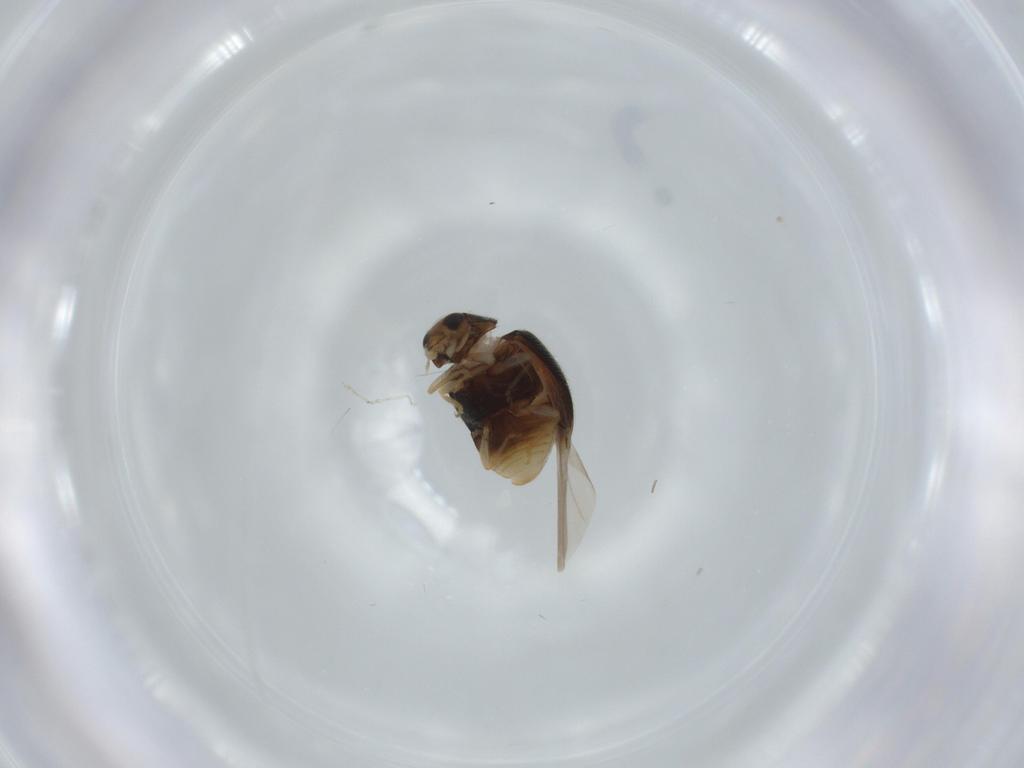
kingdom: Animalia
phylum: Arthropoda
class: Insecta
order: Coleoptera
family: Coccinellidae
